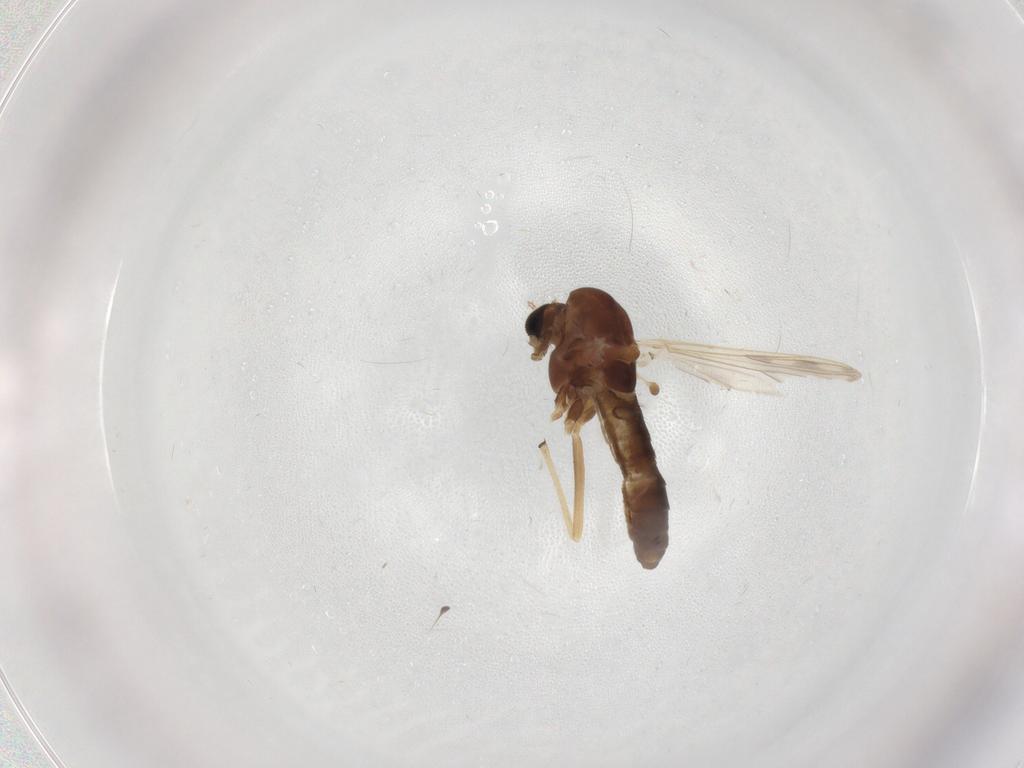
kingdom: Animalia
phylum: Arthropoda
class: Insecta
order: Diptera
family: Chironomidae
